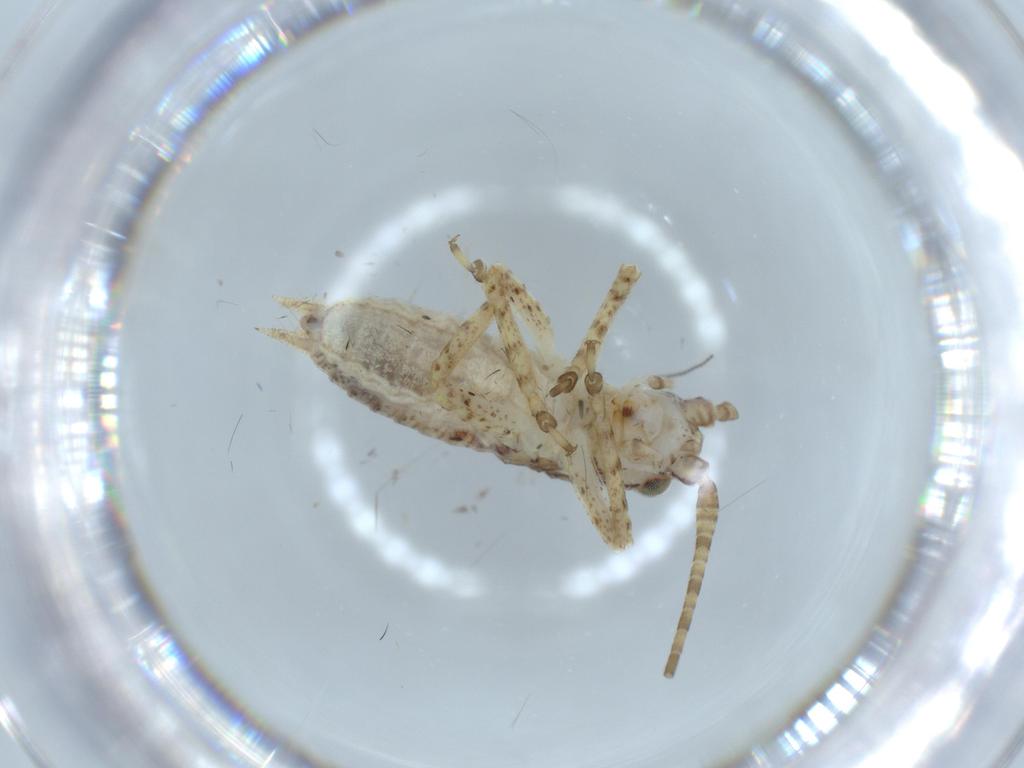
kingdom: Animalia
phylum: Arthropoda
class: Insecta
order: Orthoptera
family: Gryllidae
